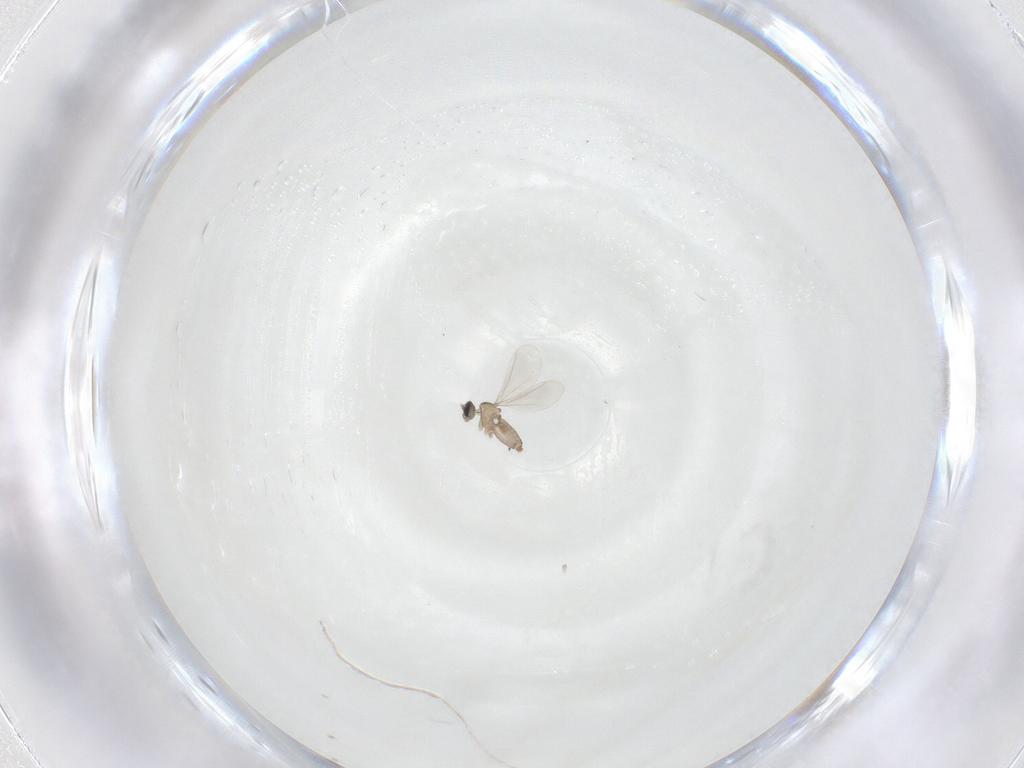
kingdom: Animalia
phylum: Arthropoda
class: Insecta
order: Diptera
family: Cecidomyiidae
